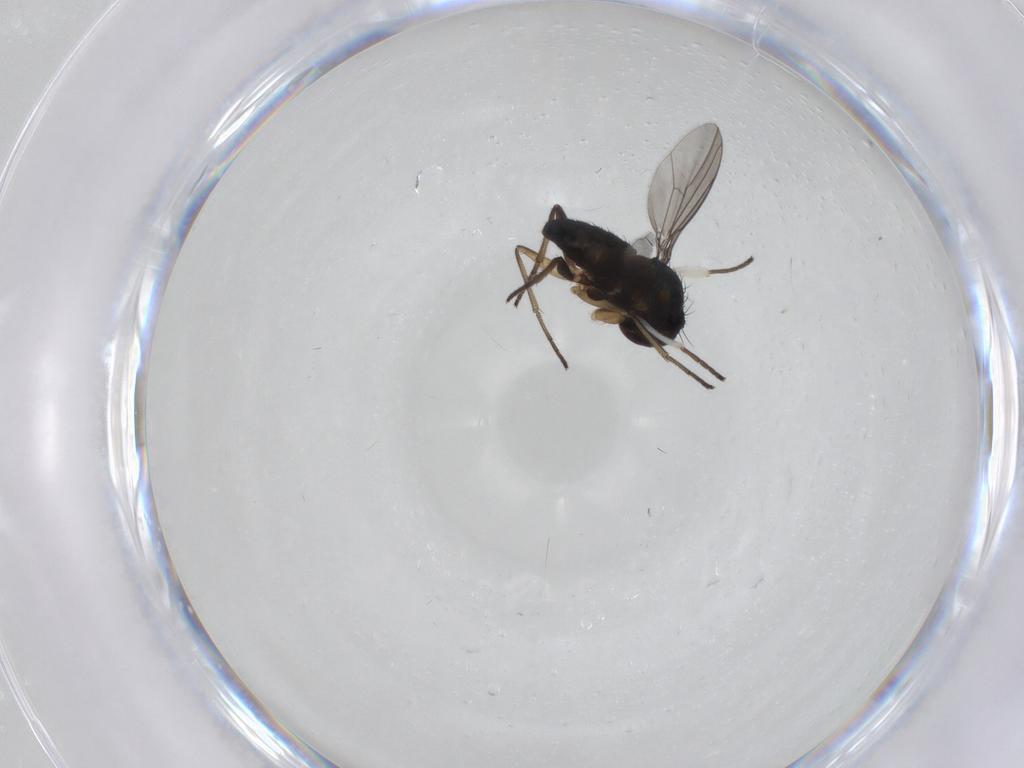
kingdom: Animalia
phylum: Arthropoda
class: Insecta
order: Diptera
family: Dolichopodidae
